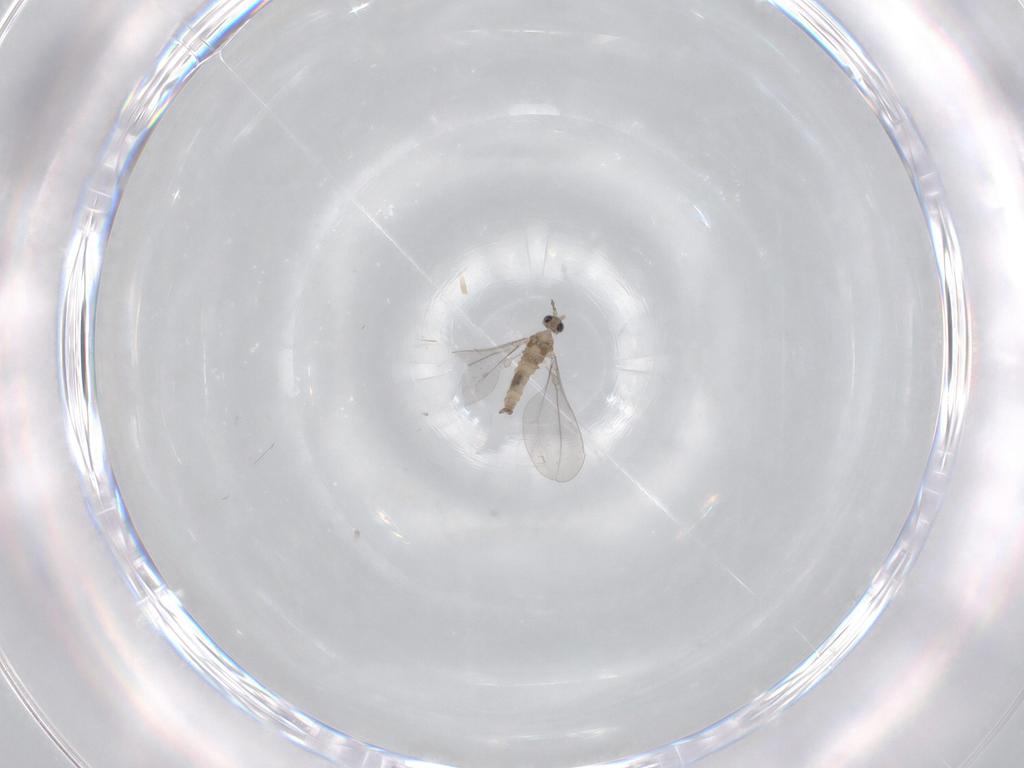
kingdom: Animalia
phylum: Arthropoda
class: Insecta
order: Diptera
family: Cecidomyiidae
